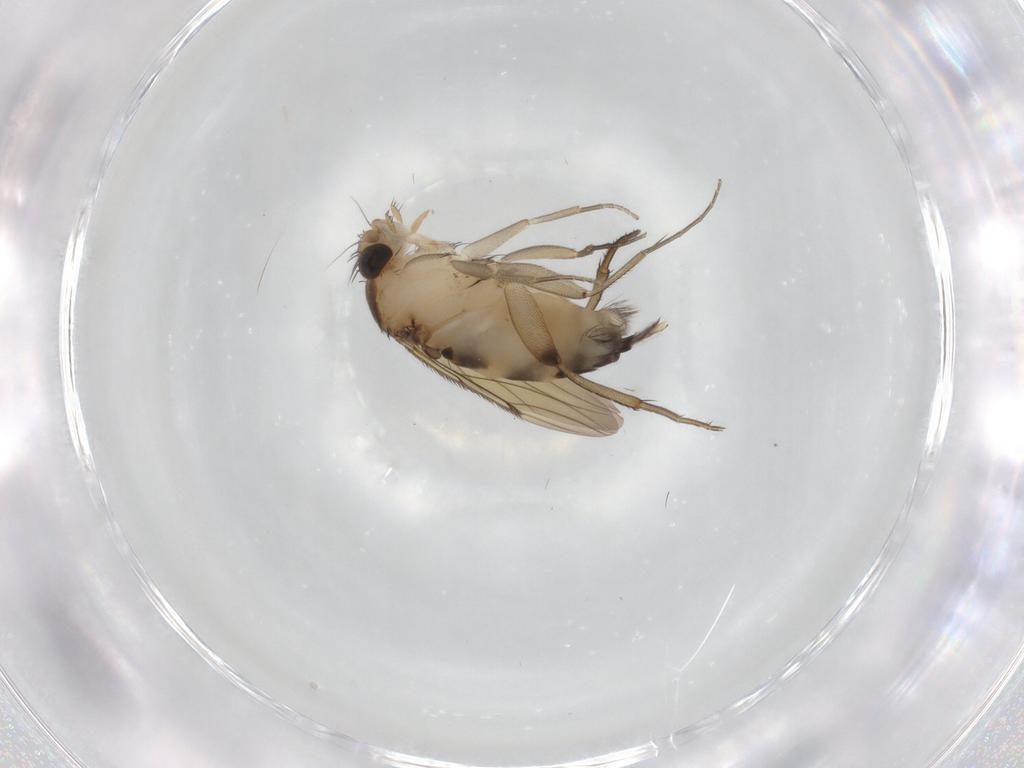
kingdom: Animalia
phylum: Arthropoda
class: Insecta
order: Diptera
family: Phoridae
